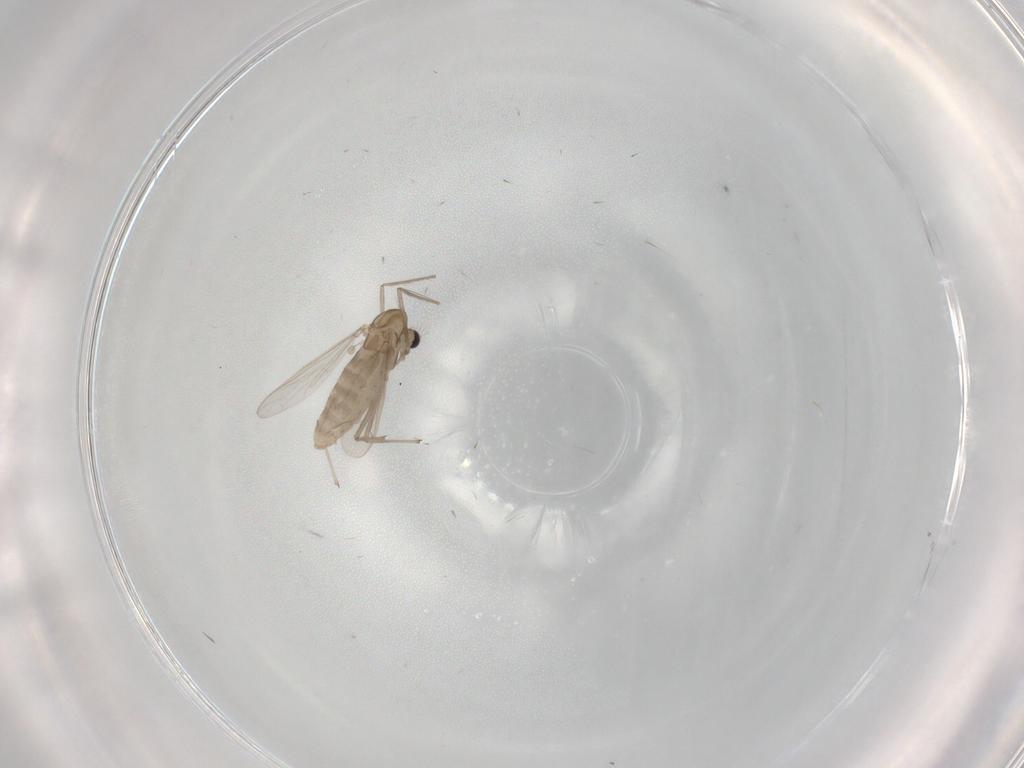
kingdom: Animalia
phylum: Arthropoda
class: Insecta
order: Diptera
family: Chironomidae
